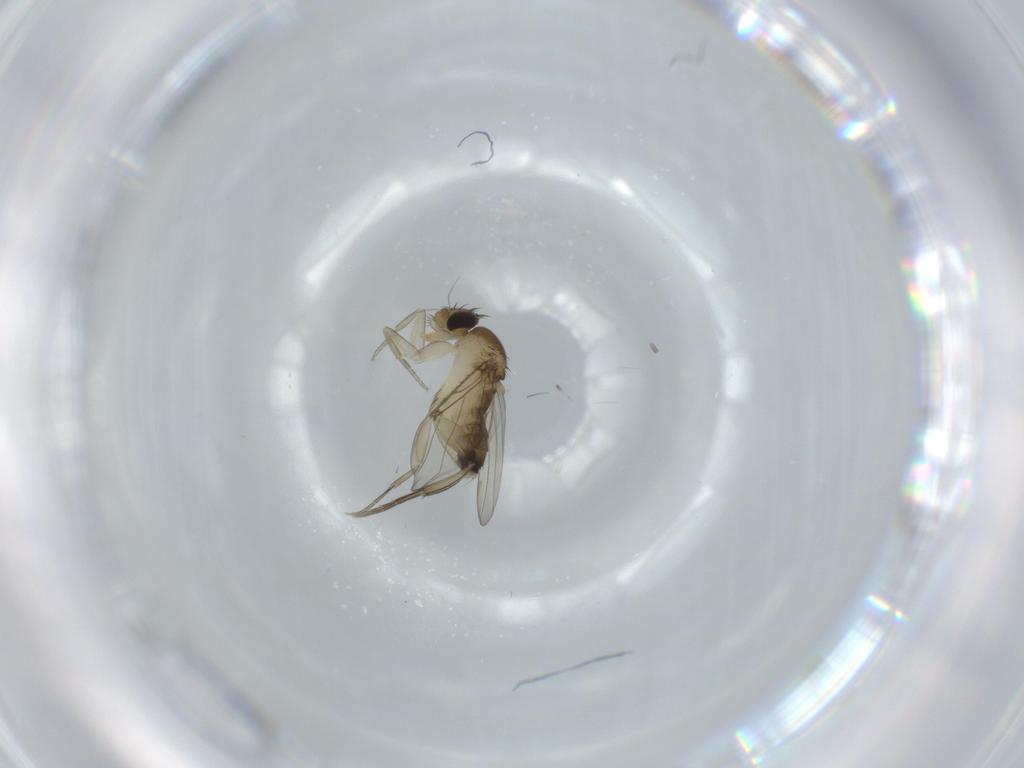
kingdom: Animalia
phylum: Arthropoda
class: Insecta
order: Diptera
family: Phoridae
